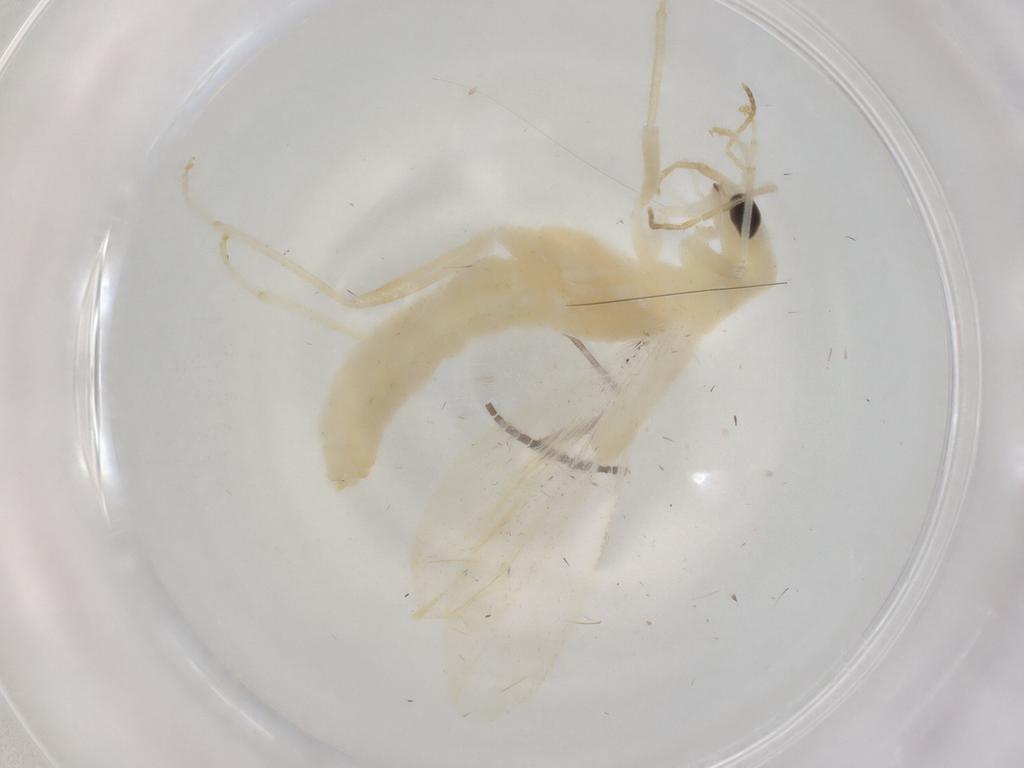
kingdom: Animalia
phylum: Arthropoda
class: Insecta
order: Coleoptera
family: Cantharidae
